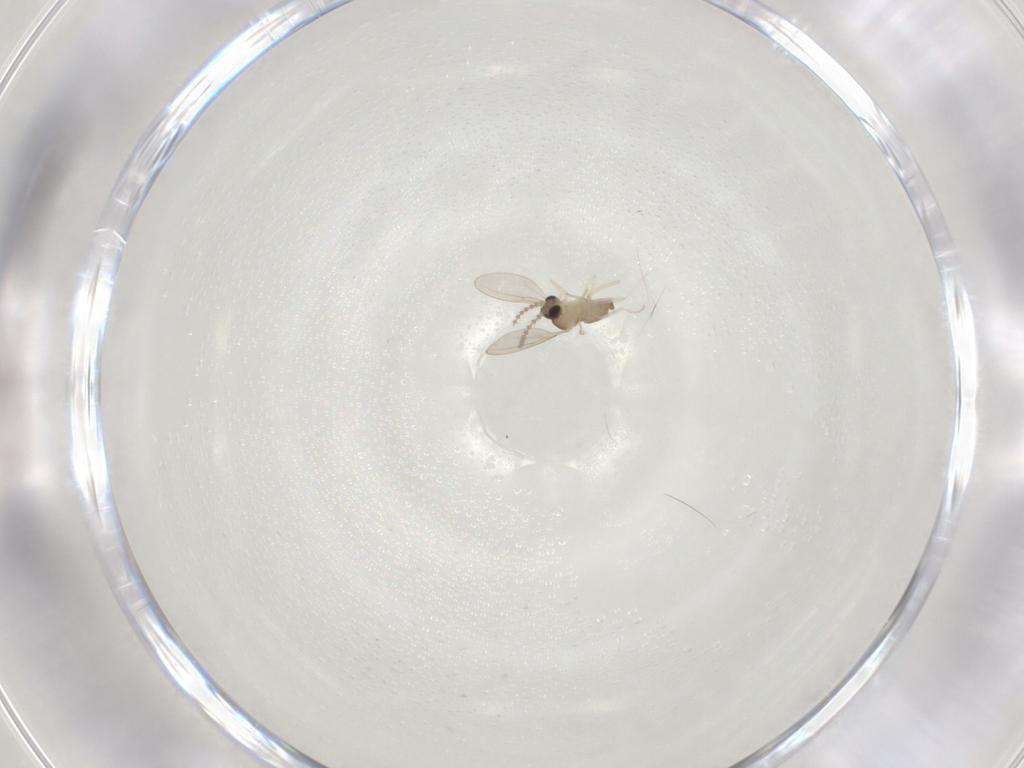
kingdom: Animalia
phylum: Arthropoda
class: Insecta
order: Diptera
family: Cecidomyiidae
